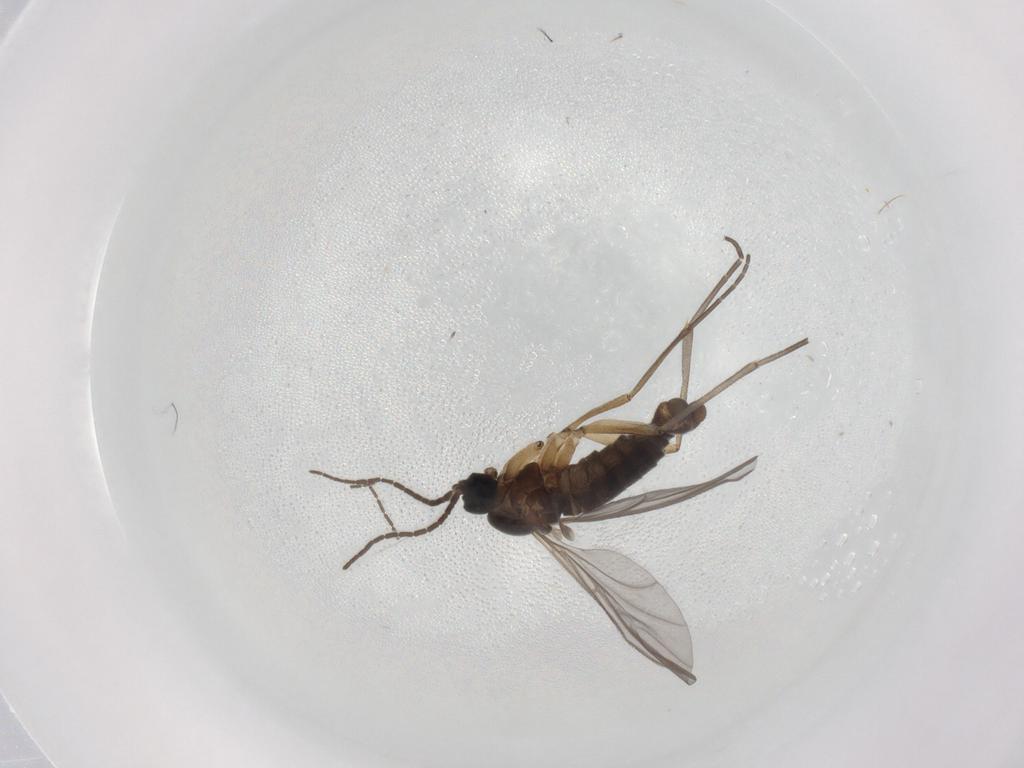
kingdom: Animalia
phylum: Arthropoda
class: Insecta
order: Diptera
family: Sciaridae
